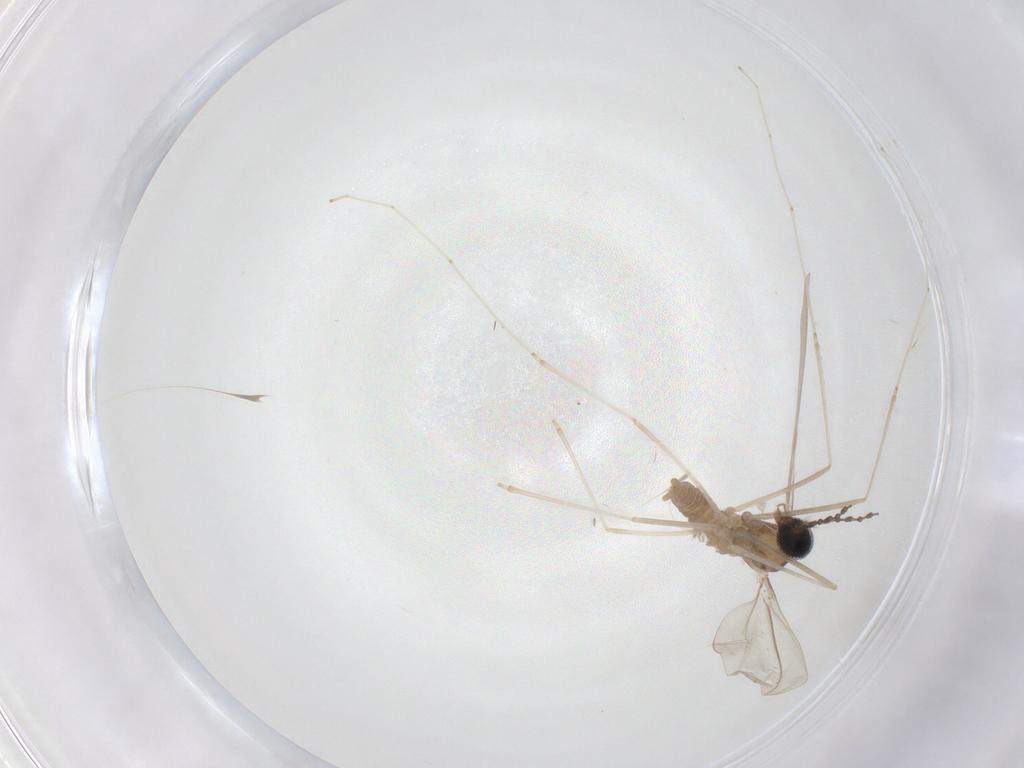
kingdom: Animalia
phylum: Arthropoda
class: Insecta
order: Diptera
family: Cecidomyiidae
